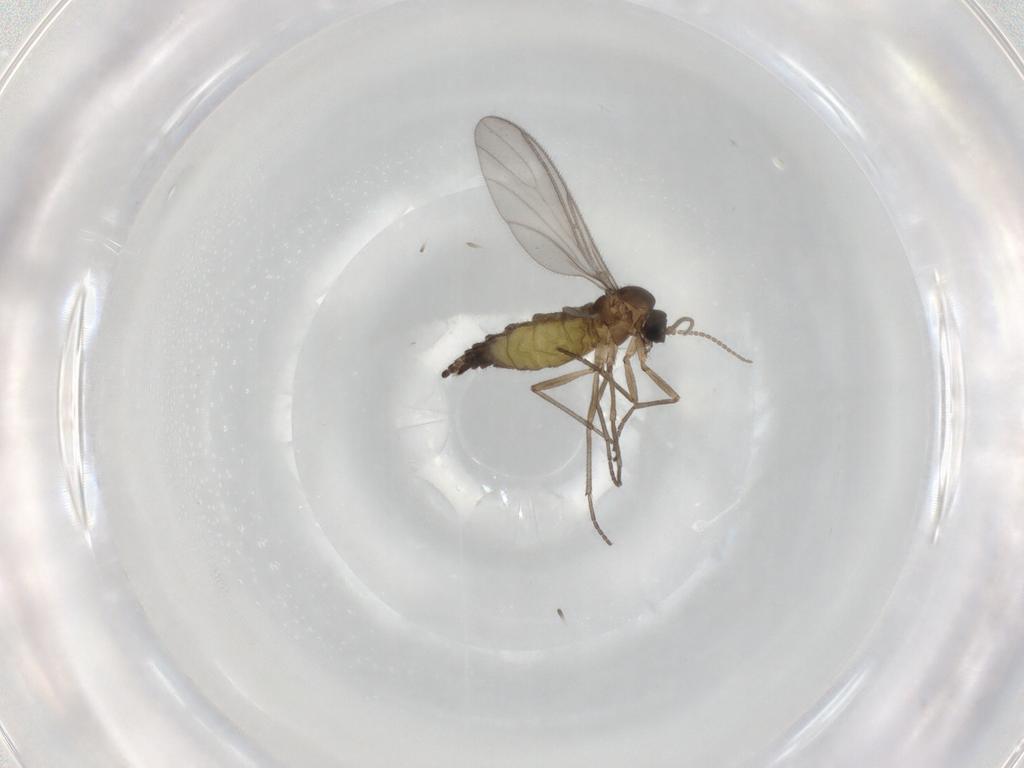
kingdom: Animalia
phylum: Arthropoda
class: Insecta
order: Diptera
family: Sciaridae
